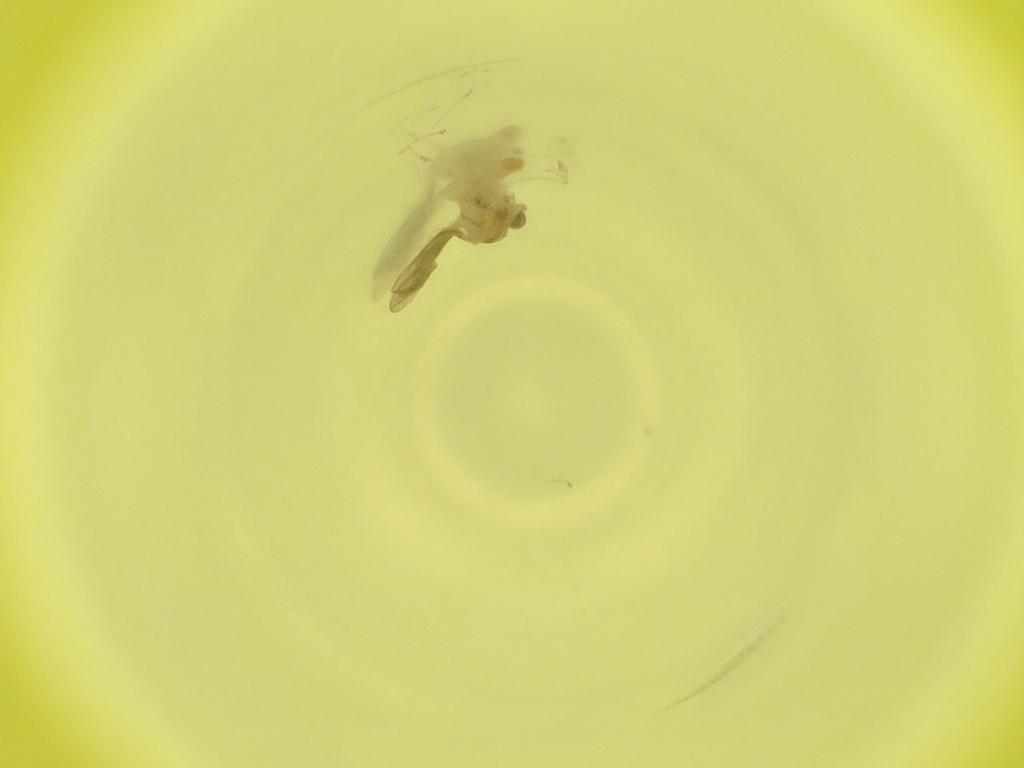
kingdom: Animalia
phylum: Arthropoda
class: Insecta
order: Diptera
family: Cecidomyiidae
